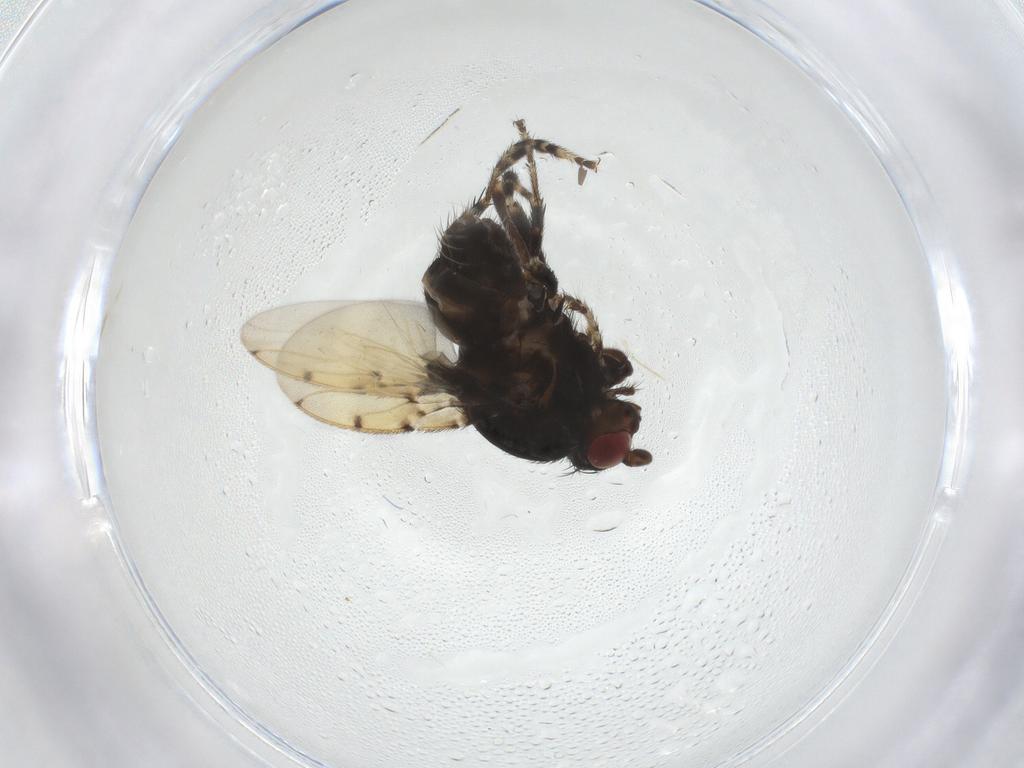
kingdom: Animalia
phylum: Arthropoda
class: Insecta
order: Diptera
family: Sphaeroceridae
